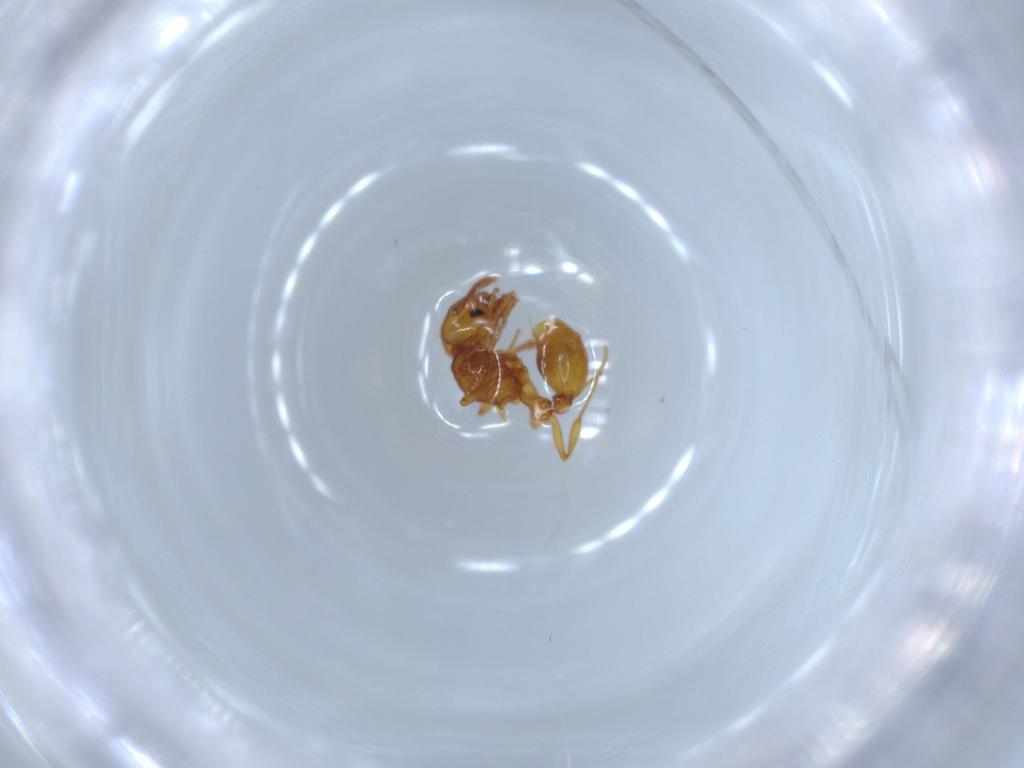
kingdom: Animalia
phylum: Arthropoda
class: Insecta
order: Hymenoptera
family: Formicidae
